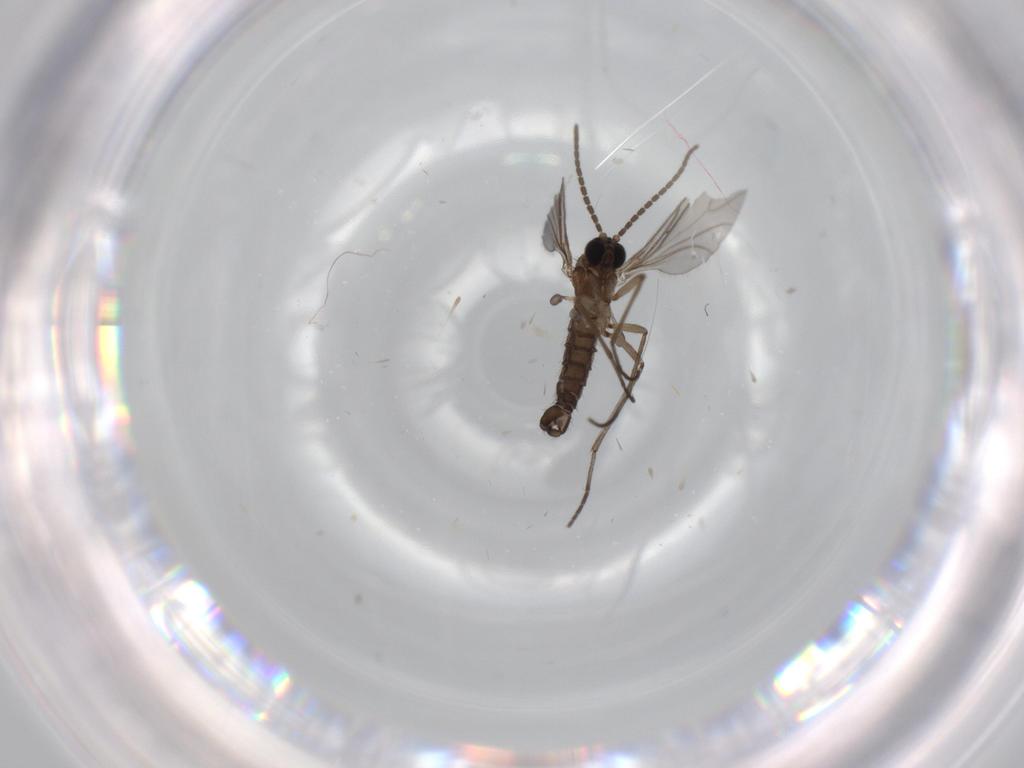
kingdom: Animalia
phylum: Arthropoda
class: Insecta
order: Diptera
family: Sciaridae
